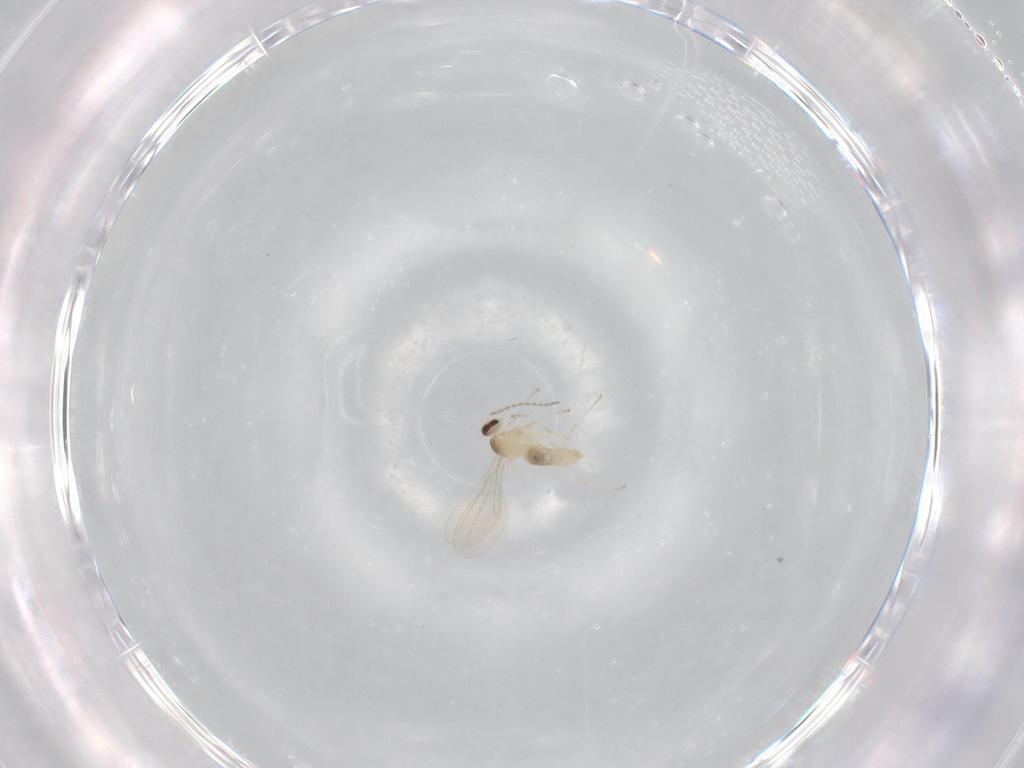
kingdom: Animalia
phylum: Arthropoda
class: Insecta
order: Diptera
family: Cecidomyiidae
